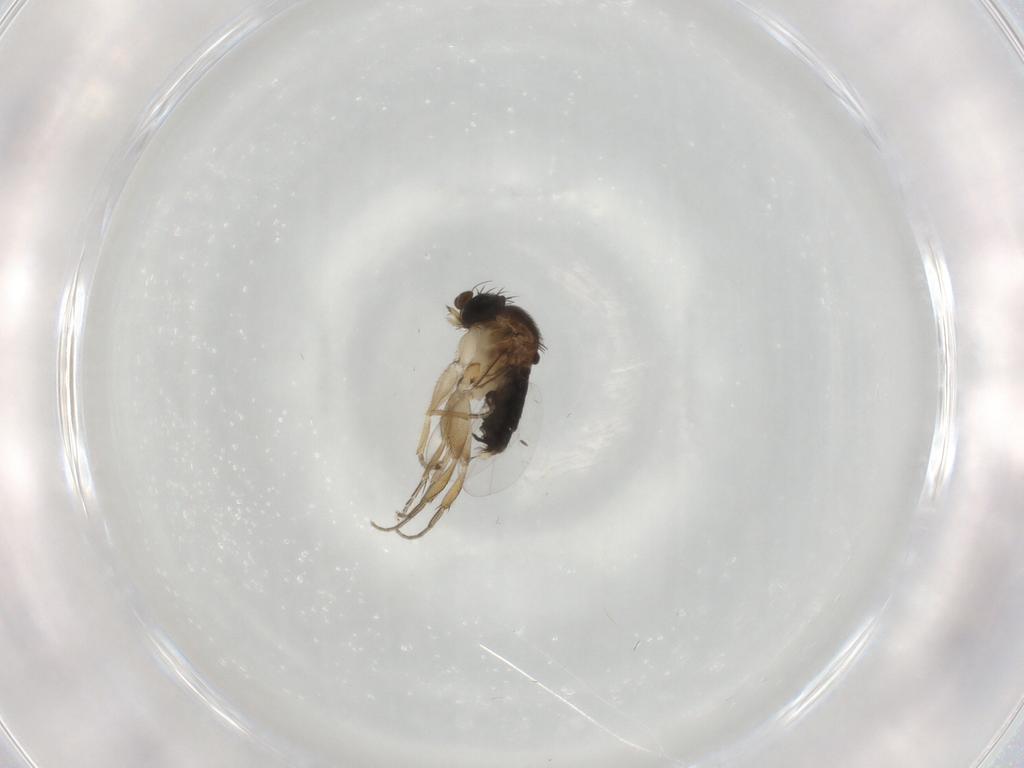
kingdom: Animalia
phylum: Arthropoda
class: Insecta
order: Diptera
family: Phoridae
